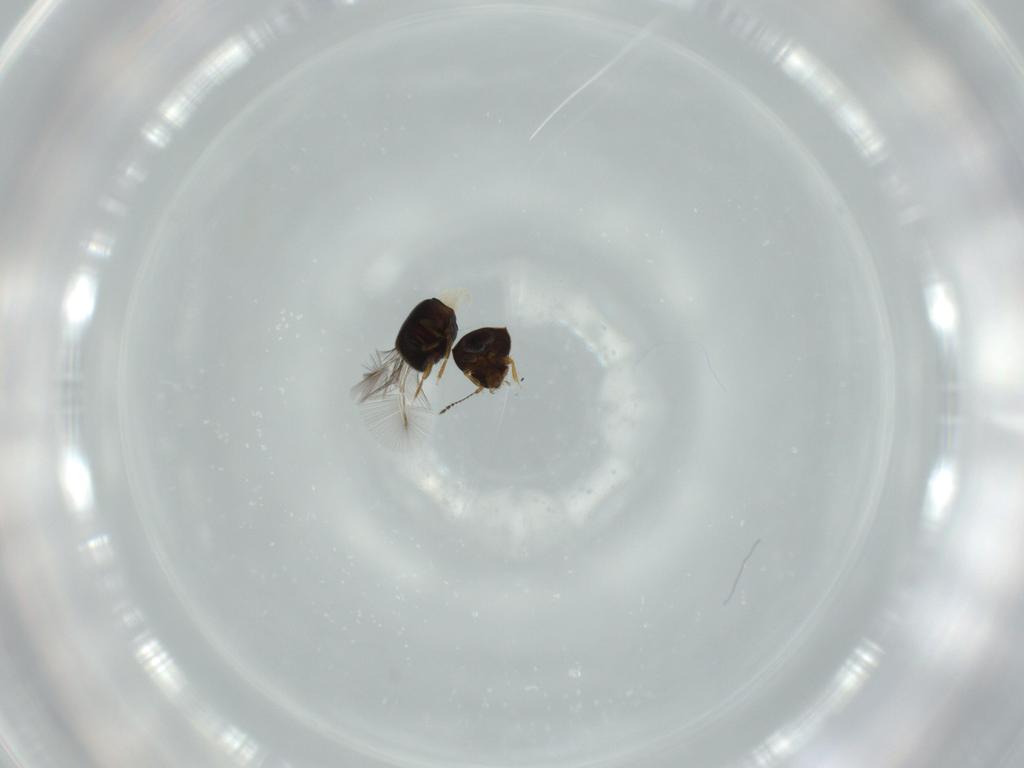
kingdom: Animalia
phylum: Arthropoda
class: Insecta
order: Coleoptera
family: Ptiliidae
